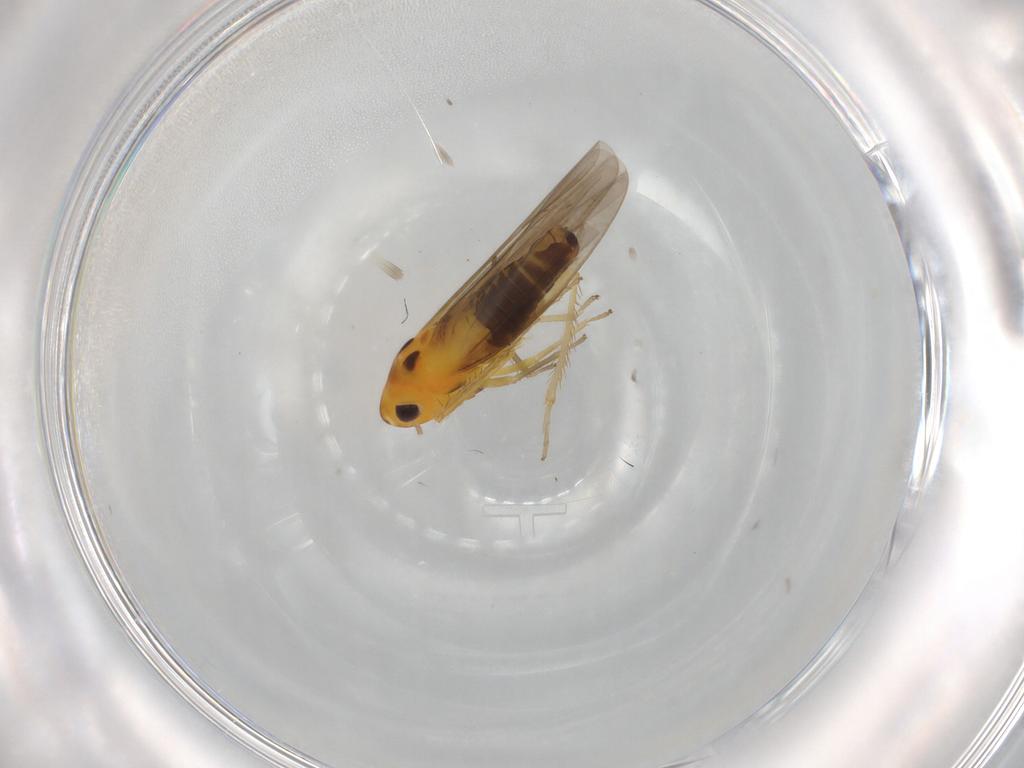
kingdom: Animalia
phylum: Arthropoda
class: Insecta
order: Hemiptera
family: Cicadellidae
